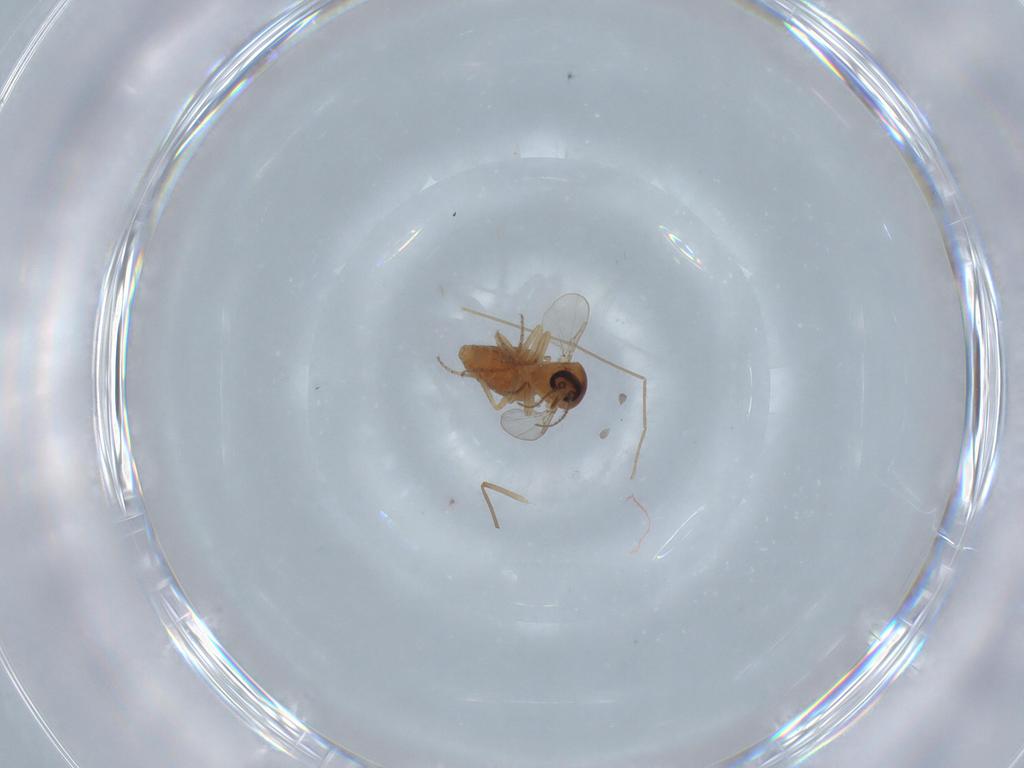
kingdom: Animalia
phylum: Arthropoda
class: Insecta
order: Diptera
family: Ceratopogonidae
